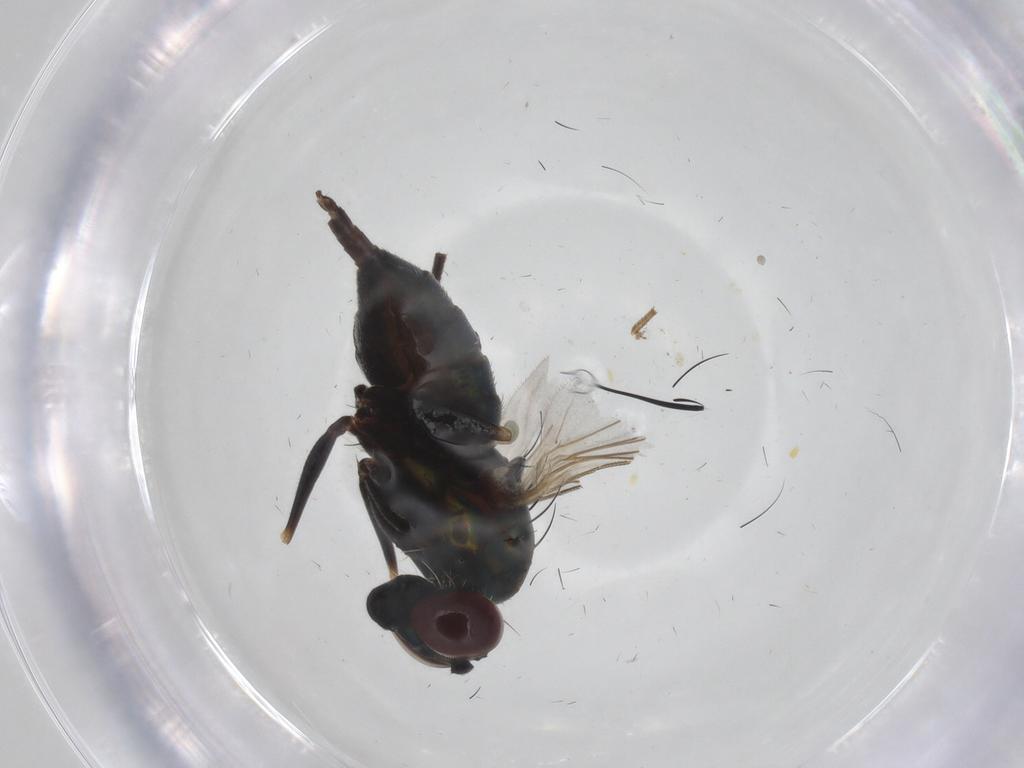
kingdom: Animalia
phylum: Arthropoda
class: Insecta
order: Diptera
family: Dolichopodidae
